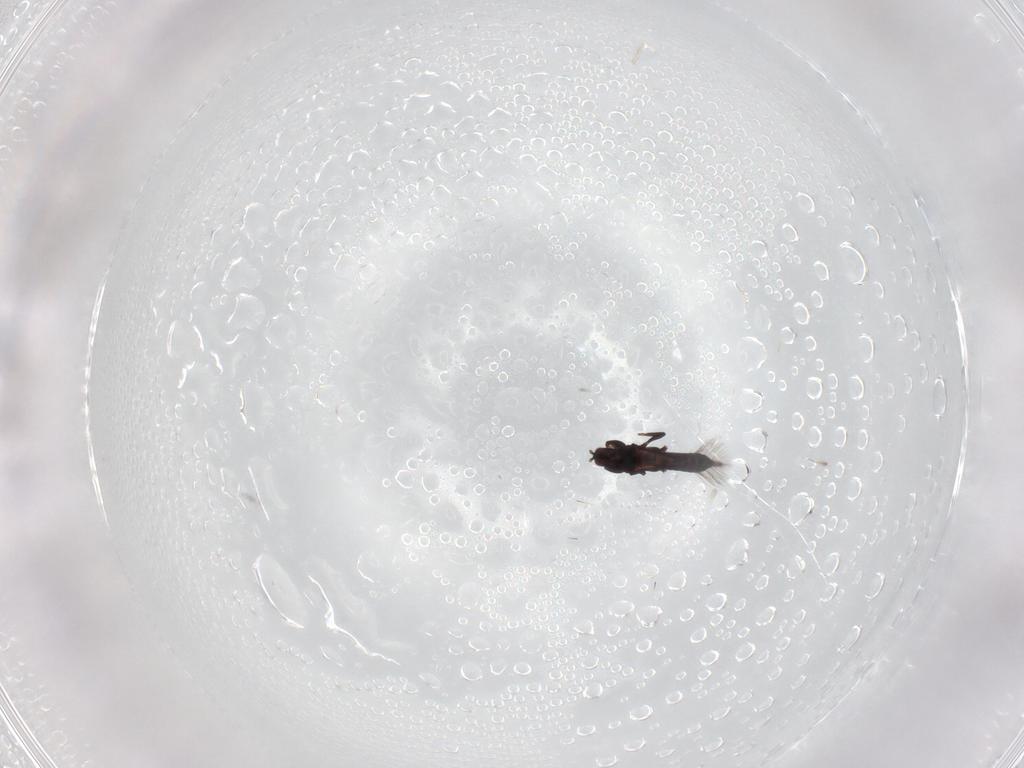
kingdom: Animalia
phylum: Arthropoda
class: Insecta
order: Thysanoptera
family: Phlaeothripidae
